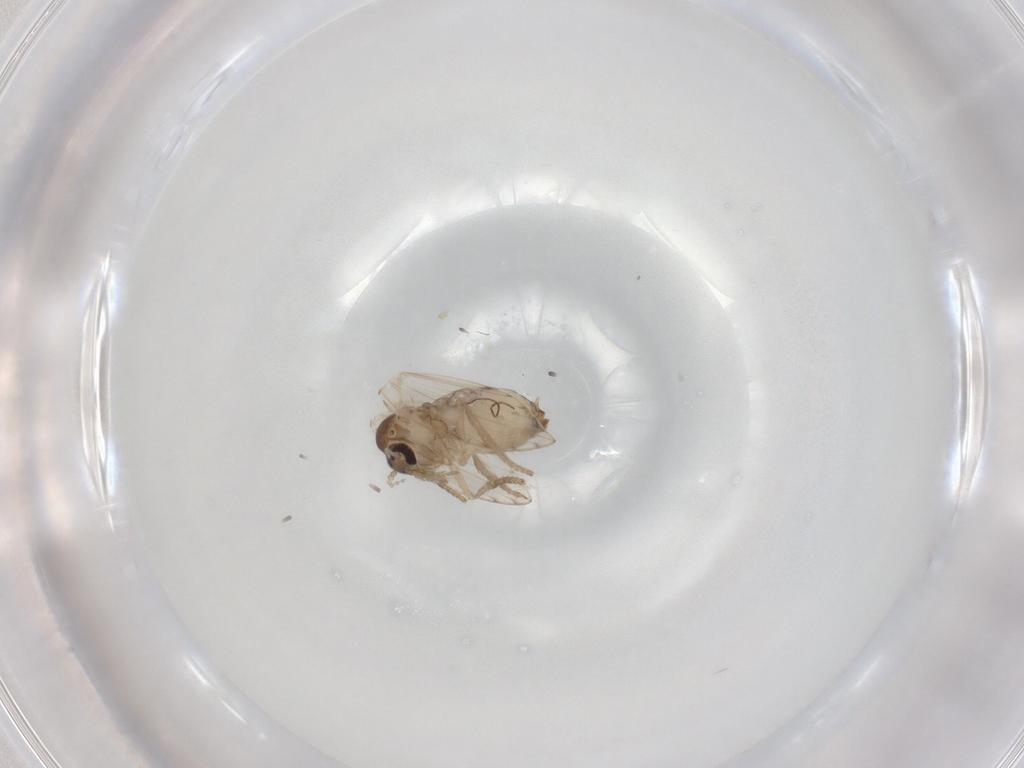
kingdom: Animalia
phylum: Arthropoda
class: Insecta
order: Diptera
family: Psychodidae
